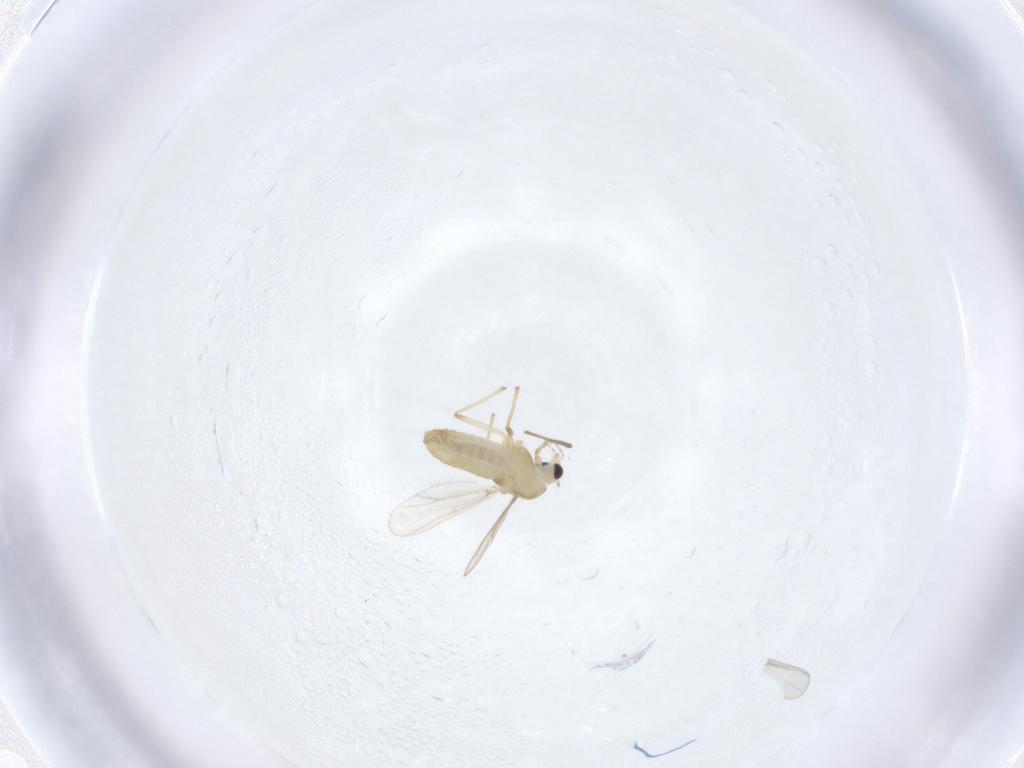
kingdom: Animalia
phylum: Arthropoda
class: Insecta
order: Diptera
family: Chironomidae
